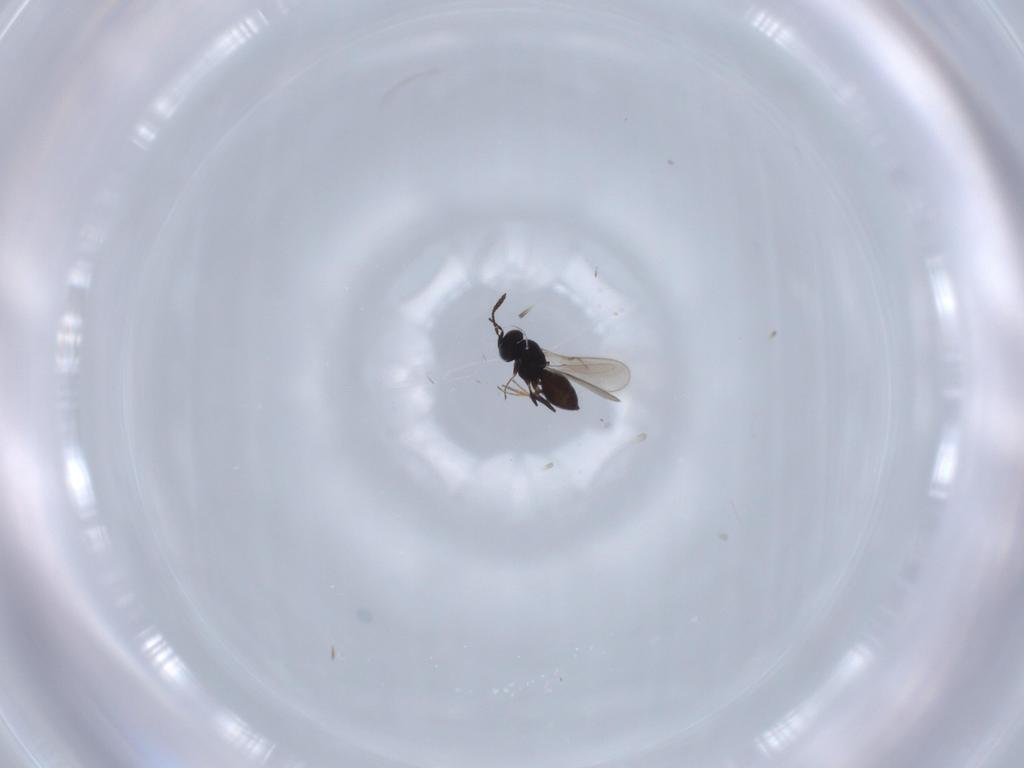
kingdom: Animalia
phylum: Arthropoda
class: Insecta
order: Hymenoptera
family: Scelionidae
